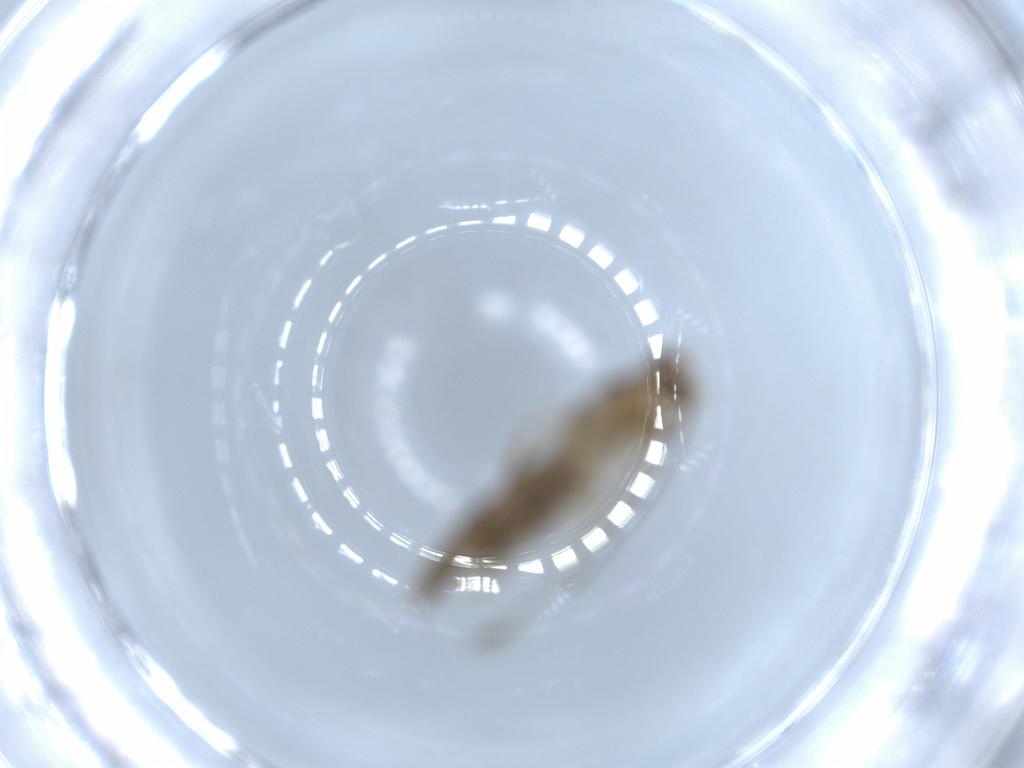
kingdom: Animalia
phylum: Arthropoda
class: Insecta
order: Lepidoptera
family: Tineidae
